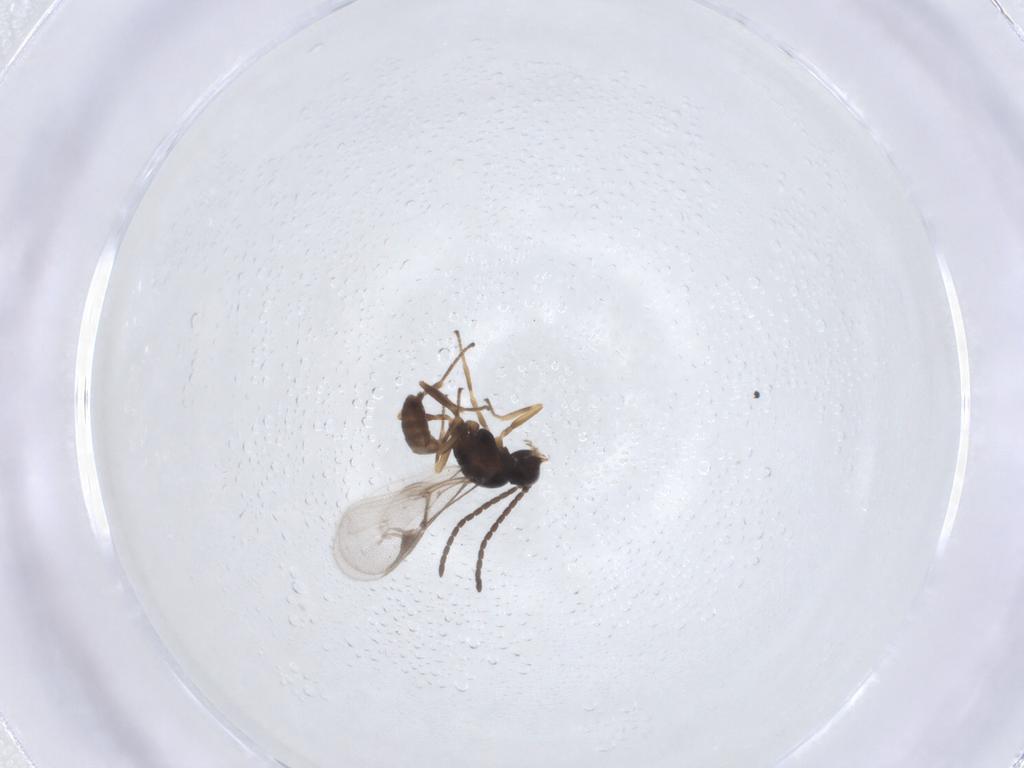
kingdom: Animalia
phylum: Arthropoda
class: Insecta
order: Hymenoptera
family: Braconidae
